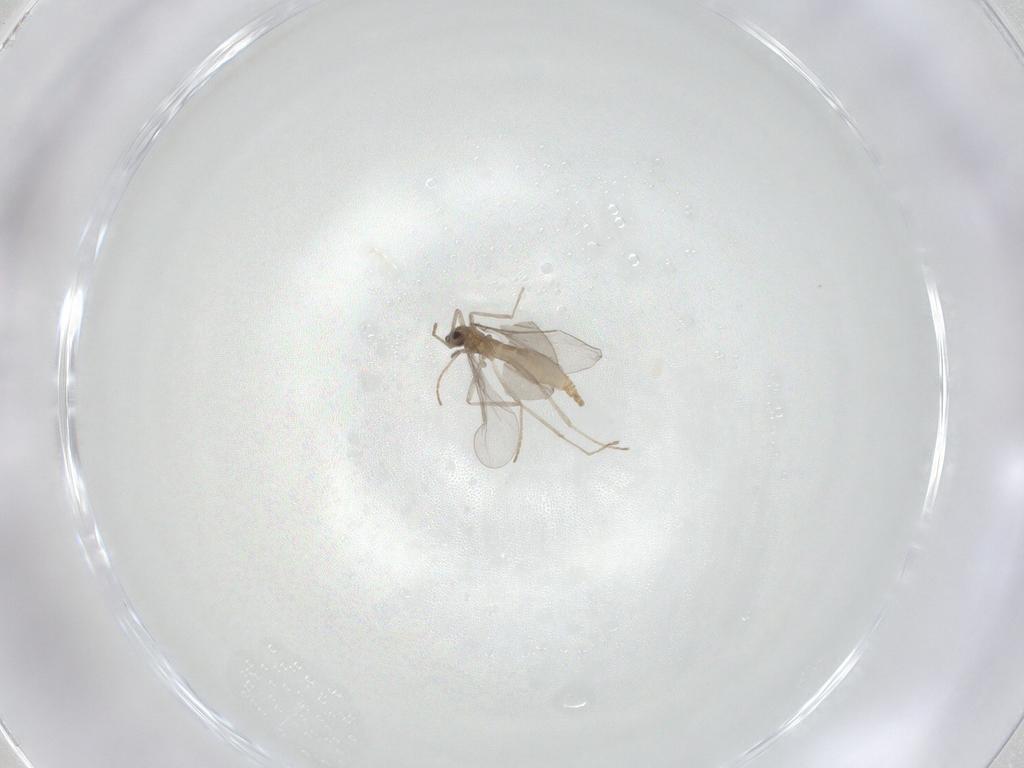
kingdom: Animalia
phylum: Arthropoda
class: Insecta
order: Diptera
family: Cecidomyiidae
